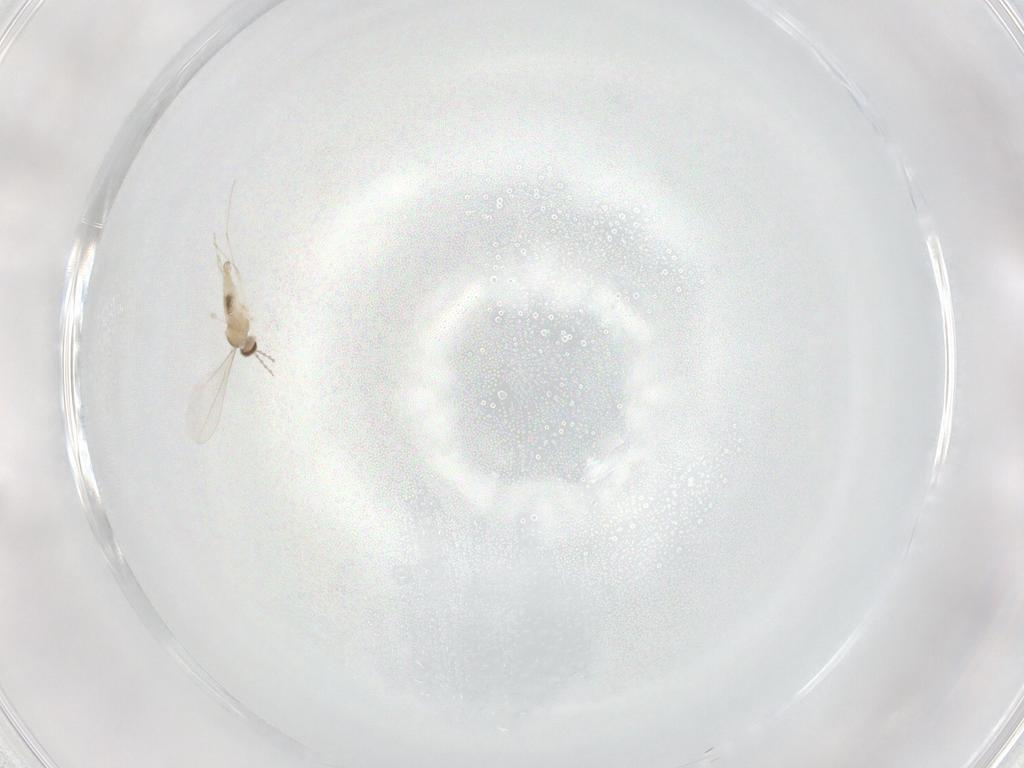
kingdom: Animalia
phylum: Arthropoda
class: Insecta
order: Diptera
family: Cecidomyiidae
